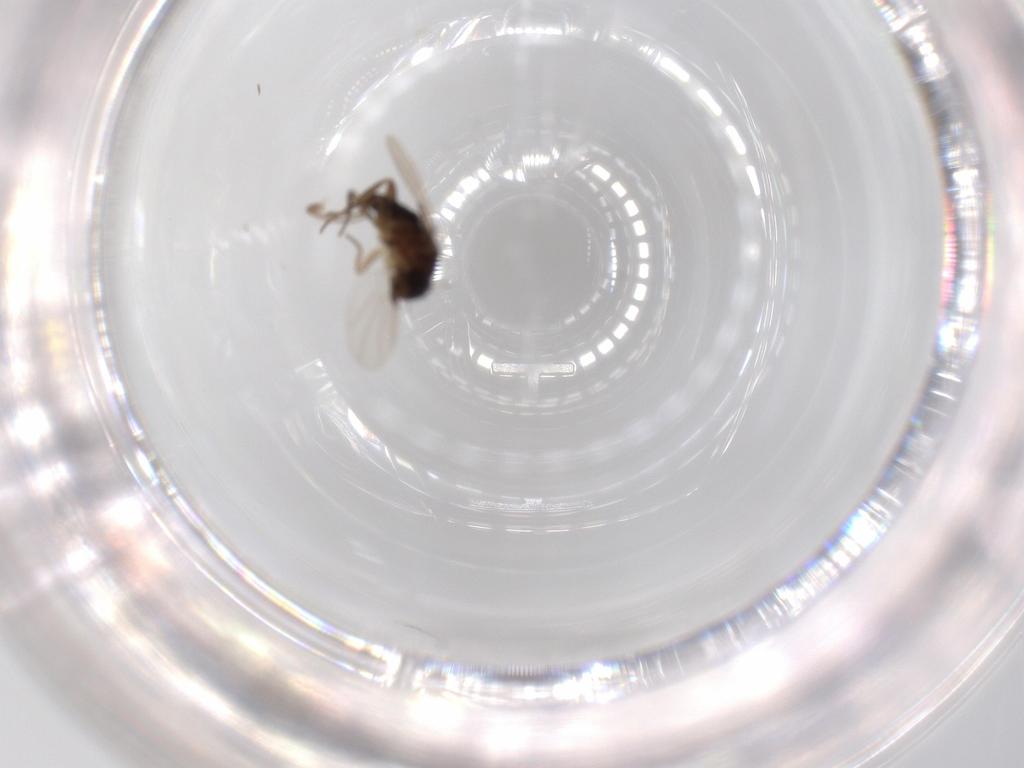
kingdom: Animalia
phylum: Arthropoda
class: Insecta
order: Diptera
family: Phoridae
